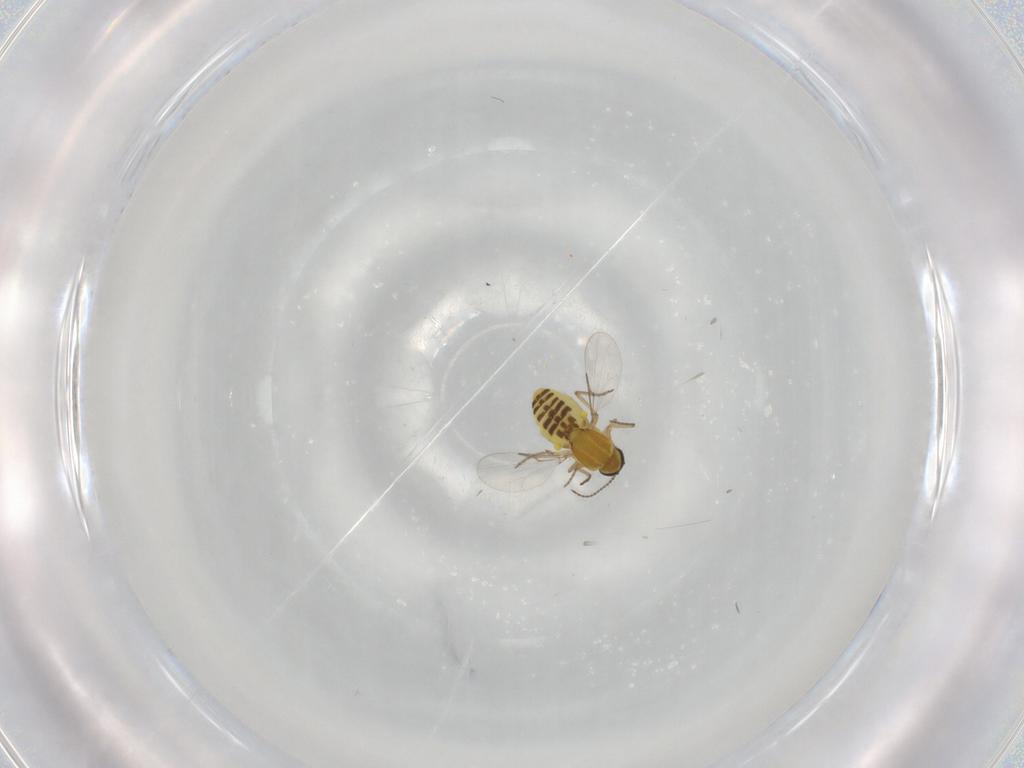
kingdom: Animalia
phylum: Arthropoda
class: Insecta
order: Diptera
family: Ceratopogonidae
